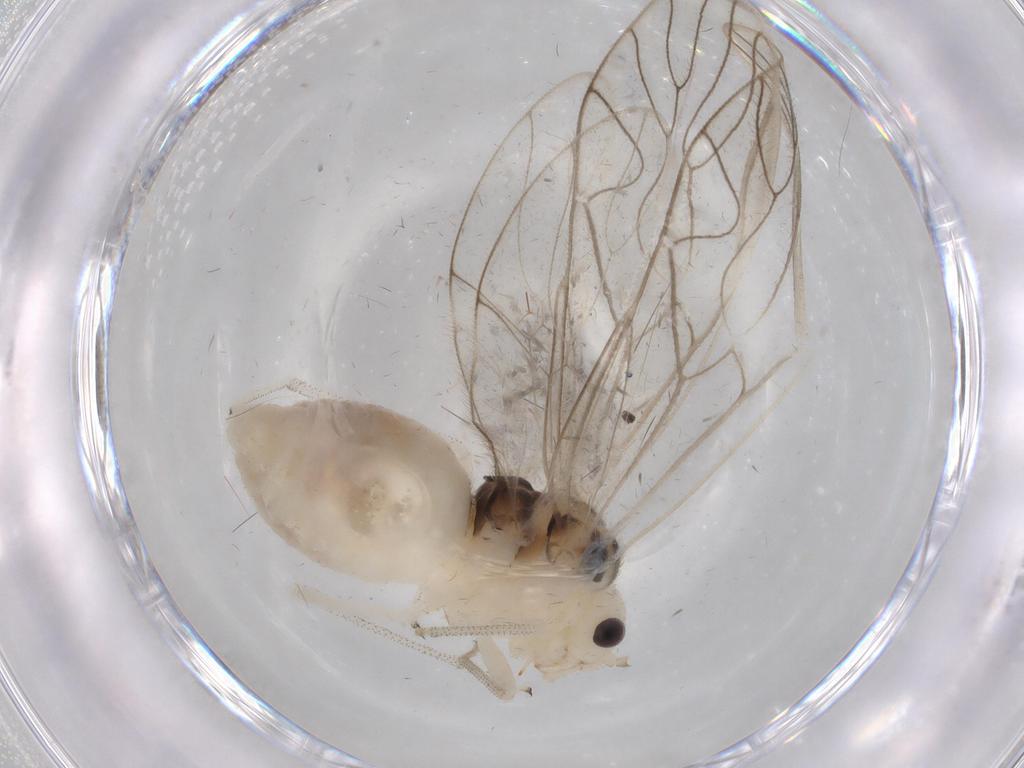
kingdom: Animalia
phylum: Arthropoda
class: Insecta
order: Psocodea
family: Amphipsocidae
